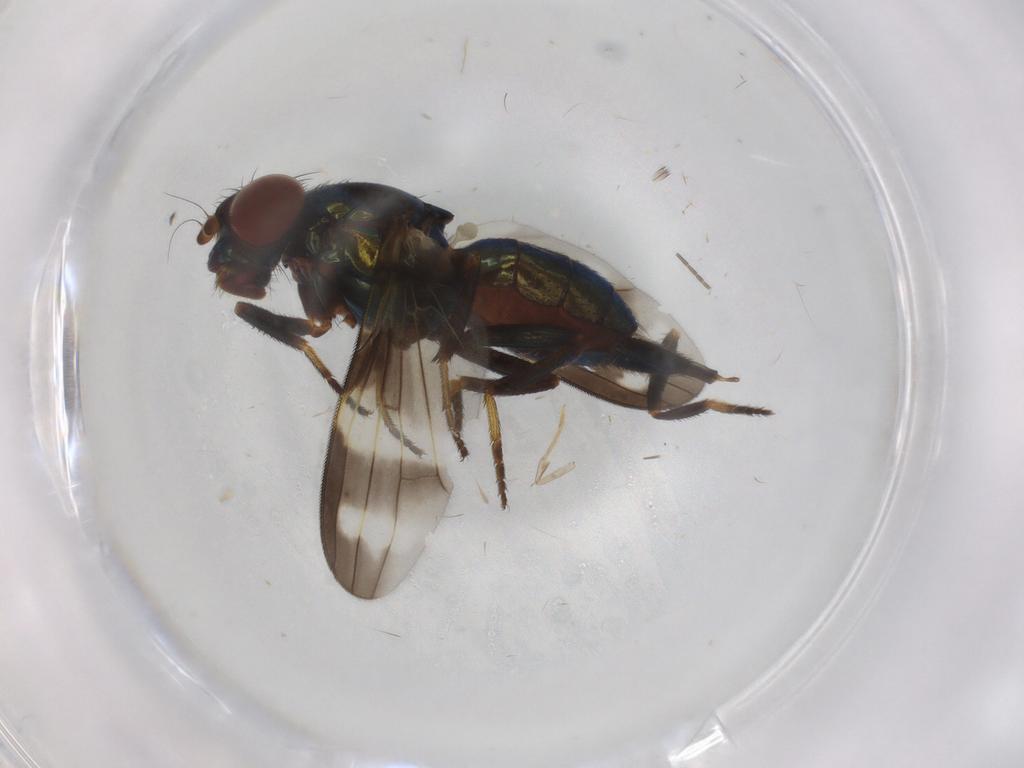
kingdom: Animalia
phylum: Arthropoda
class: Insecta
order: Diptera
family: Ulidiidae
